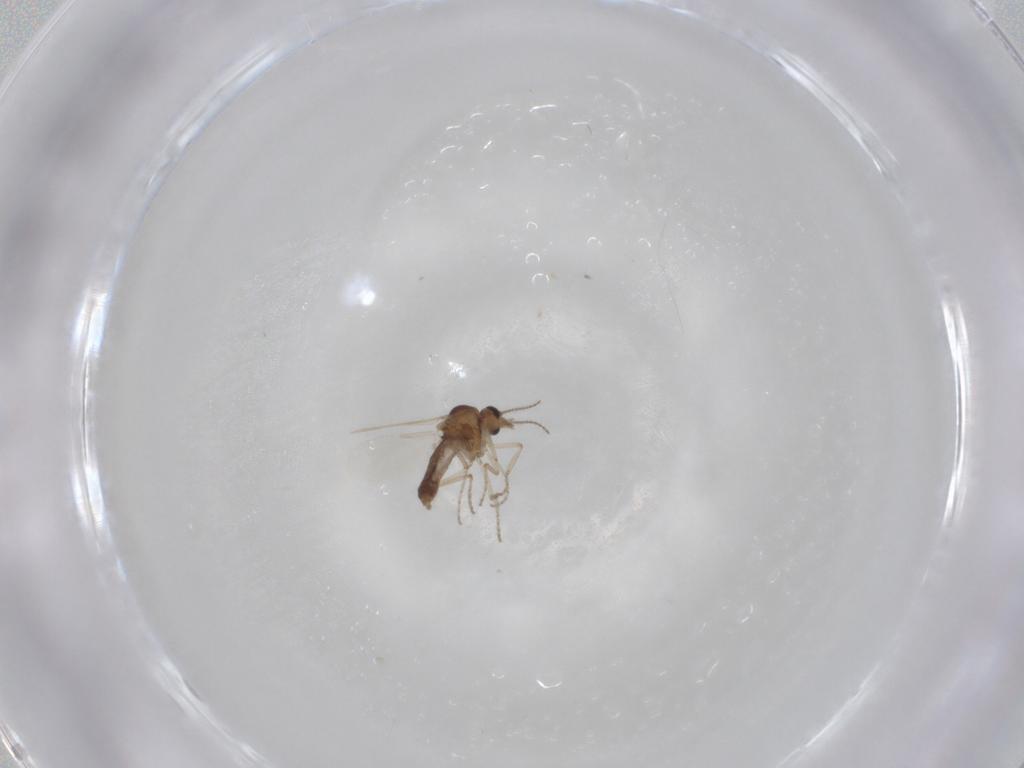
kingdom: Animalia
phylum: Arthropoda
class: Insecta
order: Diptera
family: Ceratopogonidae
